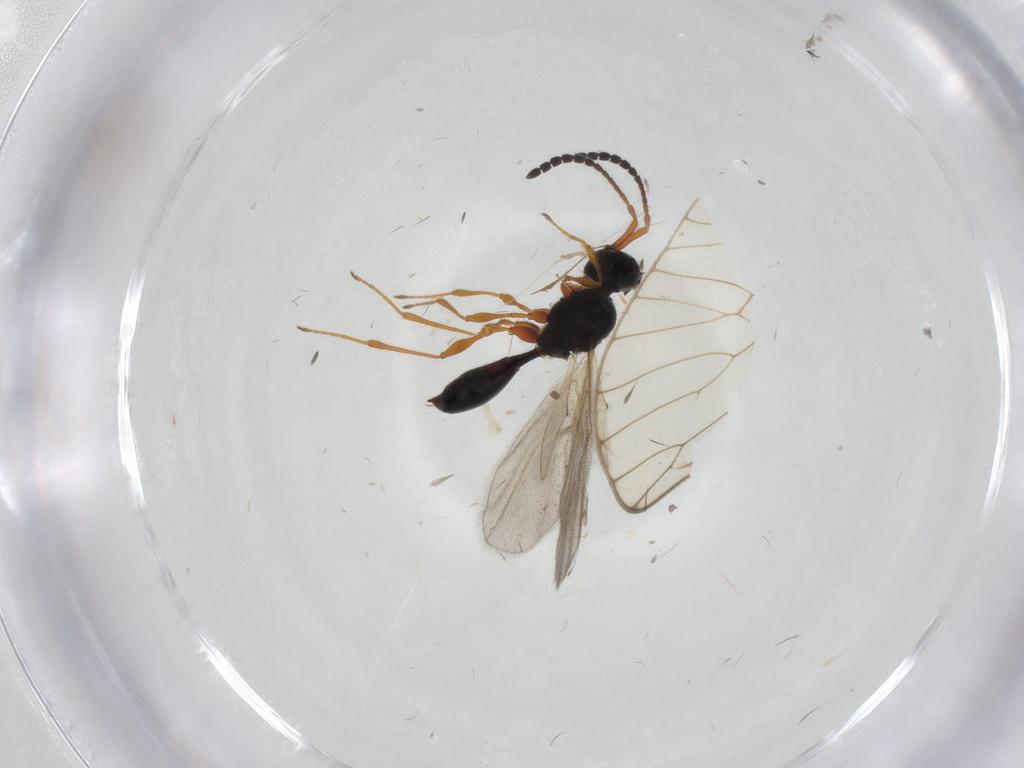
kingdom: Animalia
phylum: Arthropoda
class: Insecta
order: Hymenoptera
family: Diapriidae
